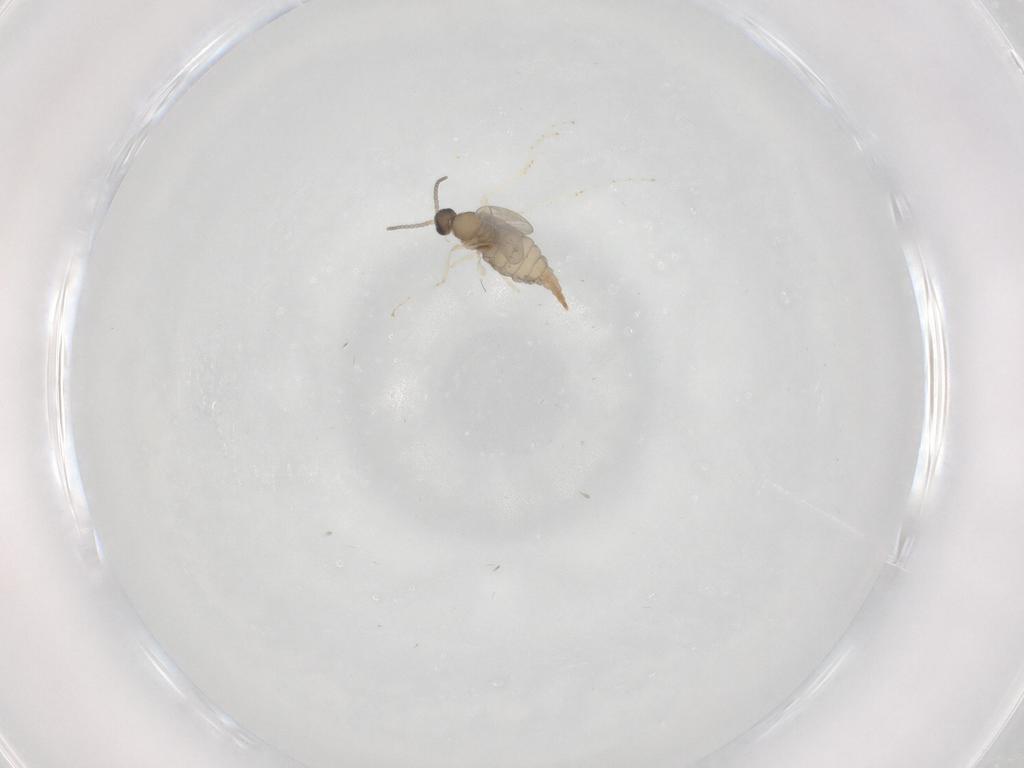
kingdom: Animalia
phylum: Arthropoda
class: Insecta
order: Diptera
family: Cecidomyiidae
